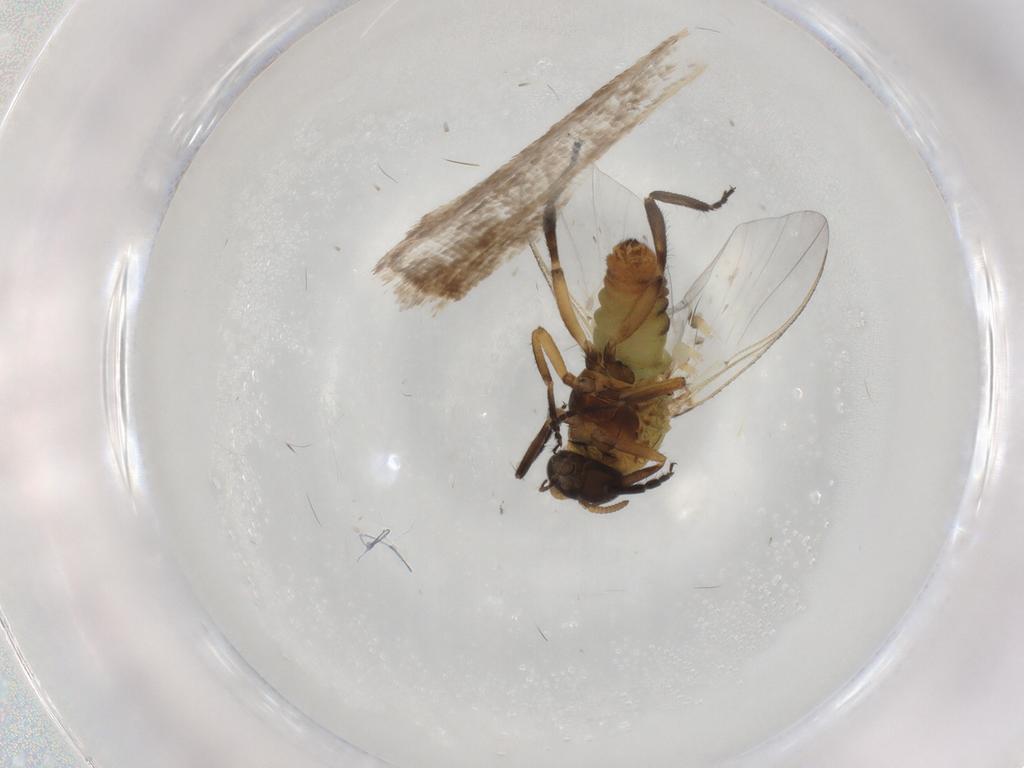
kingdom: Animalia
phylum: Arthropoda
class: Insecta
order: Diptera
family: Simuliidae
